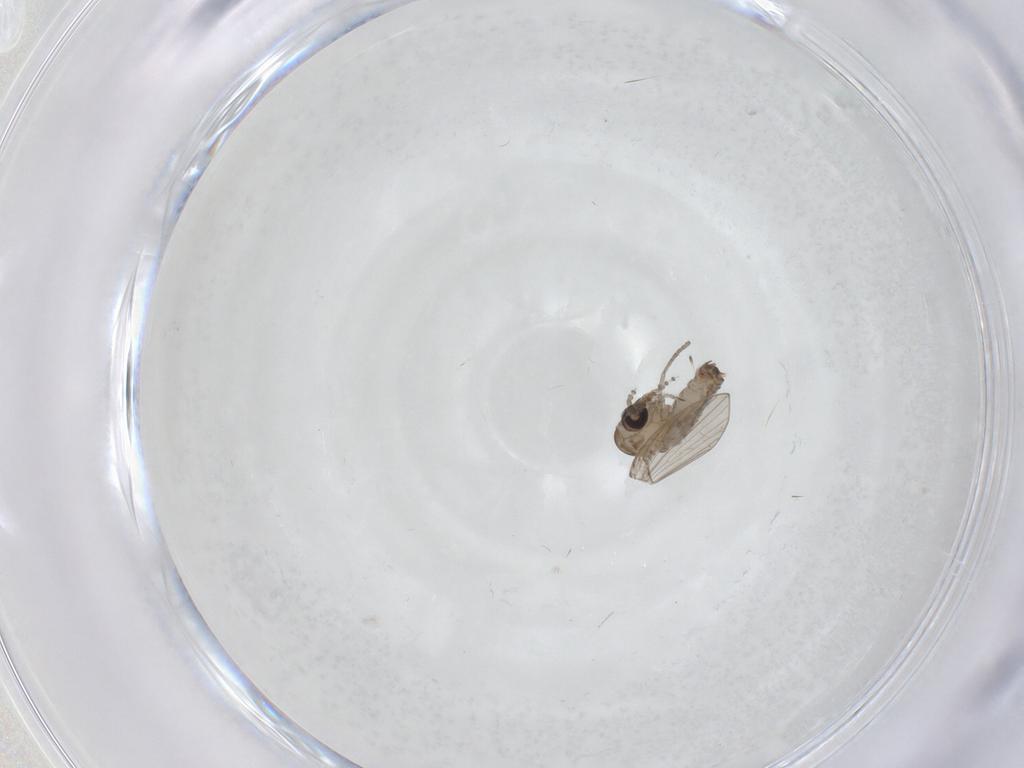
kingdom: Animalia
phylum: Arthropoda
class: Insecta
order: Diptera
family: Psychodidae
